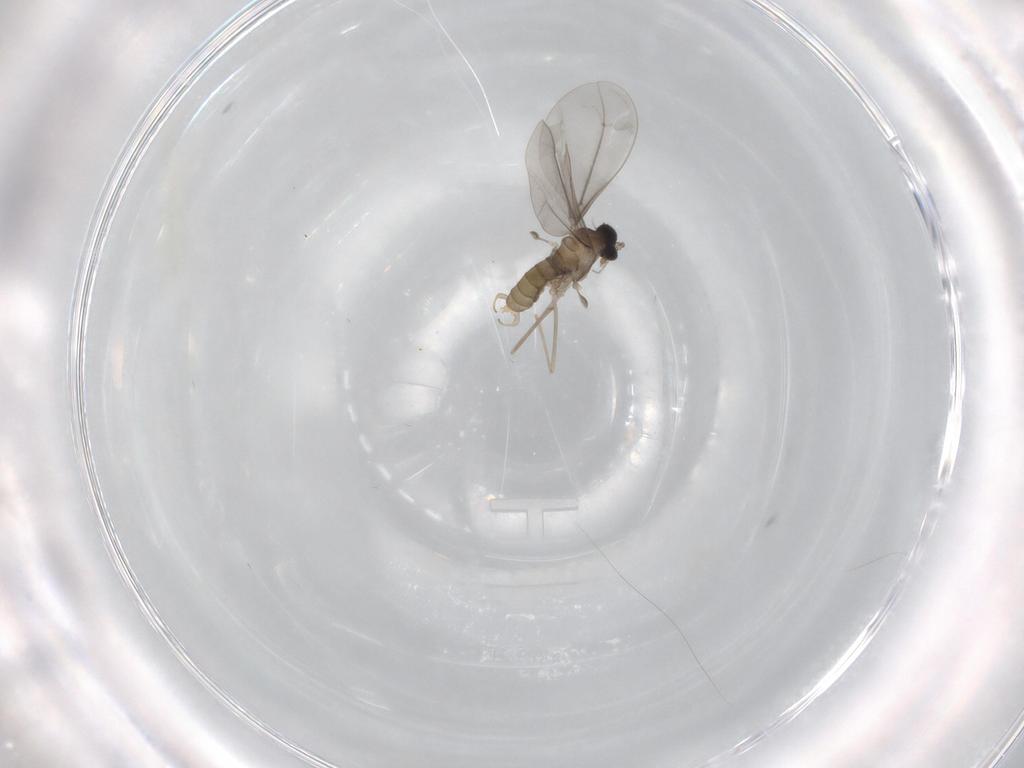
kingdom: Animalia
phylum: Arthropoda
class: Insecta
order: Diptera
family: Cecidomyiidae
